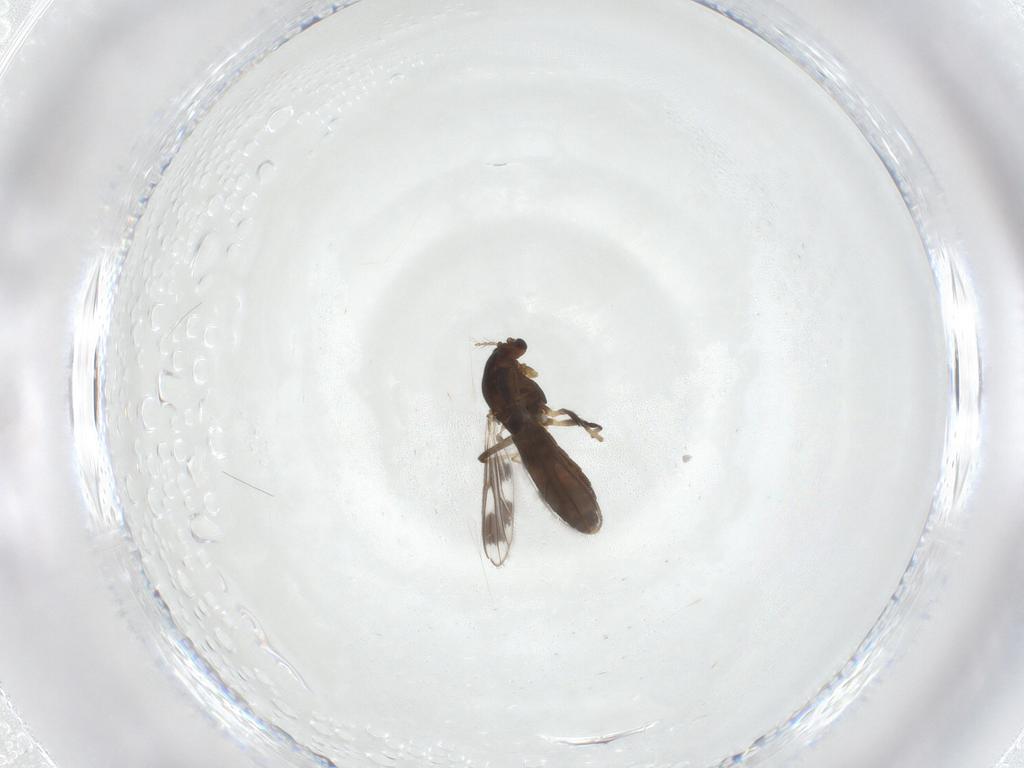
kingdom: Animalia
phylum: Arthropoda
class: Insecta
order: Diptera
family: Chironomidae
